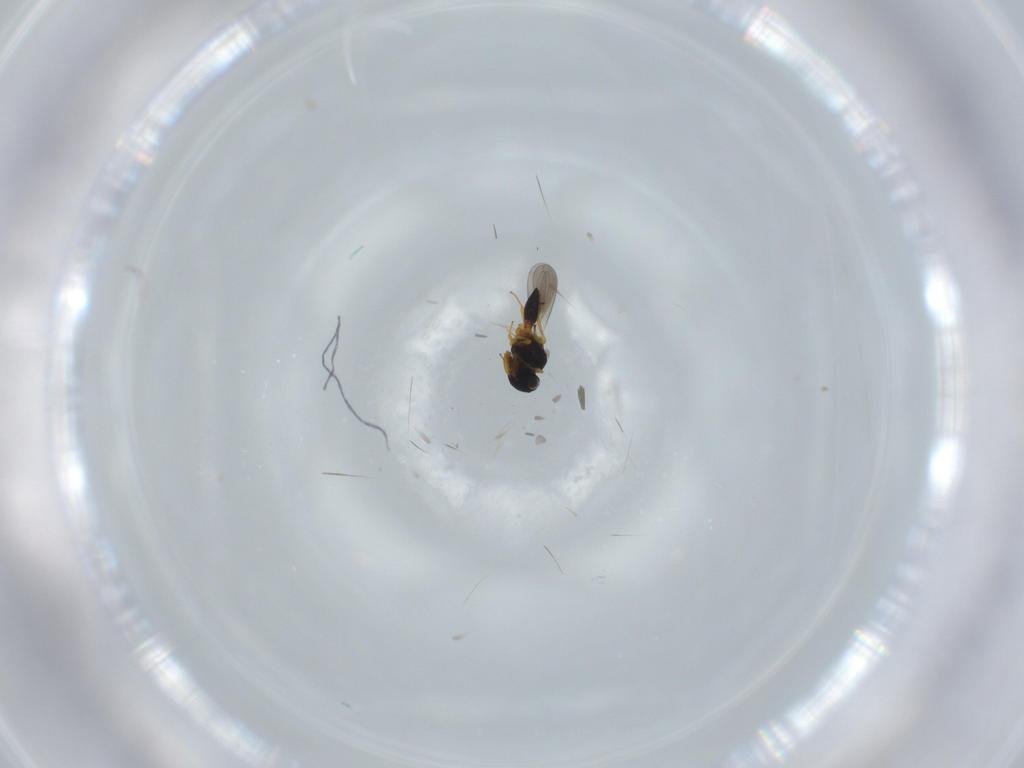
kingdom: Animalia
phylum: Arthropoda
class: Insecta
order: Hymenoptera
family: Platygastridae
